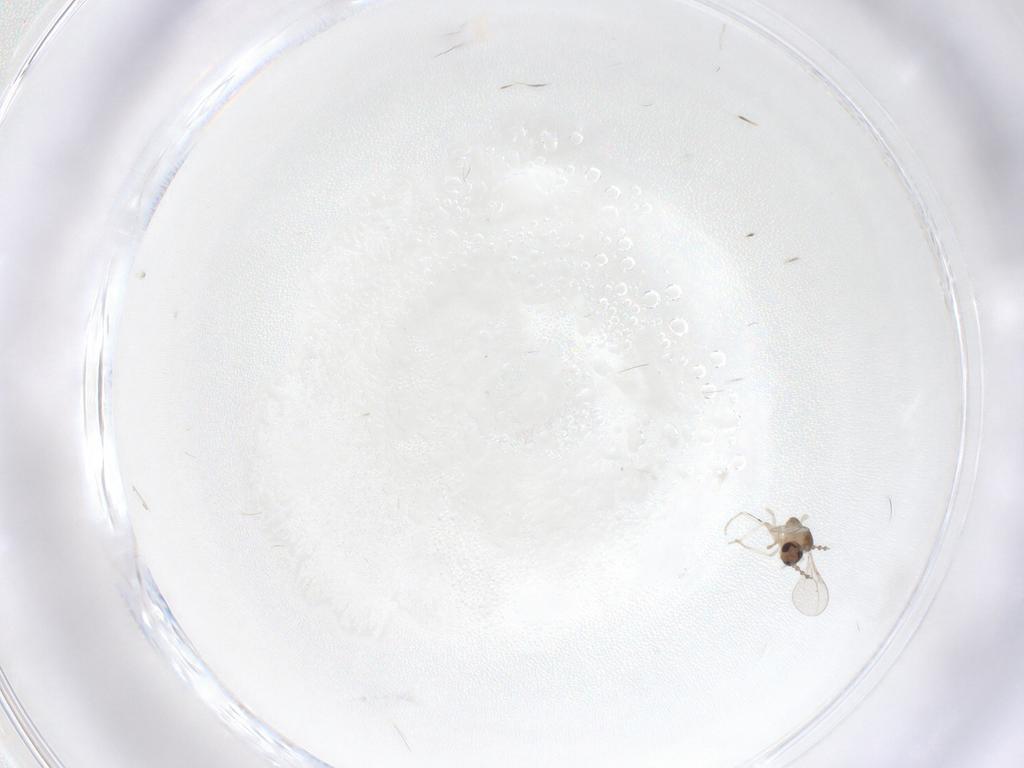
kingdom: Animalia
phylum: Arthropoda
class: Insecta
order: Diptera
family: Cecidomyiidae
